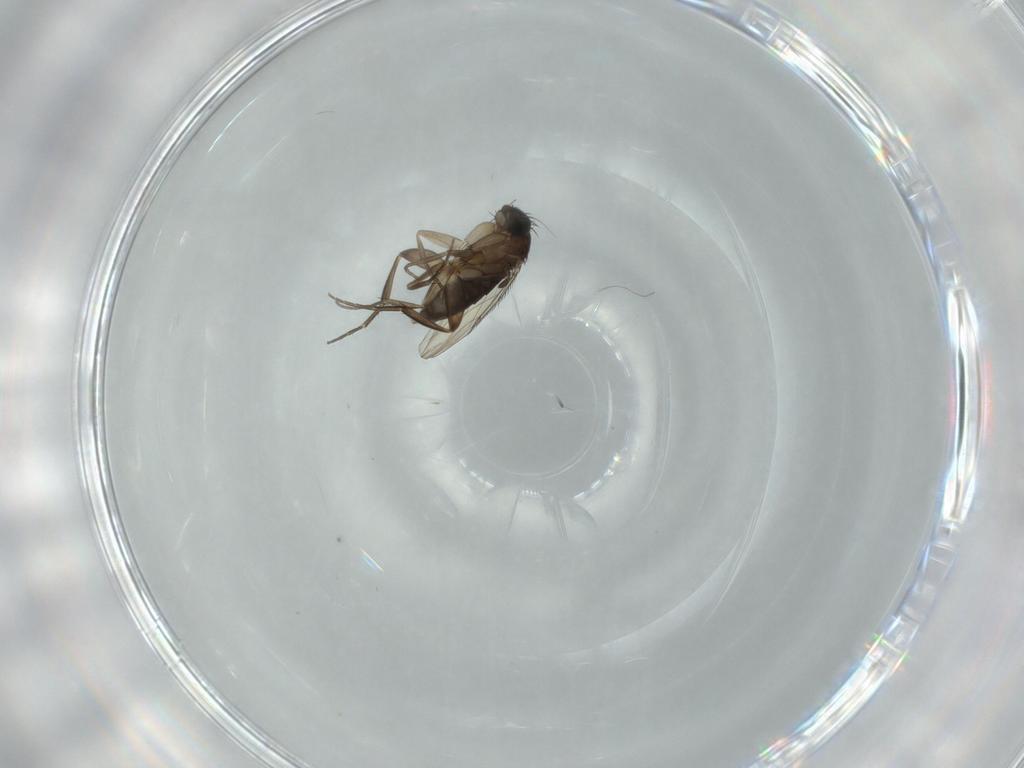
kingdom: Animalia
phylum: Arthropoda
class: Insecta
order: Diptera
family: Phoridae
